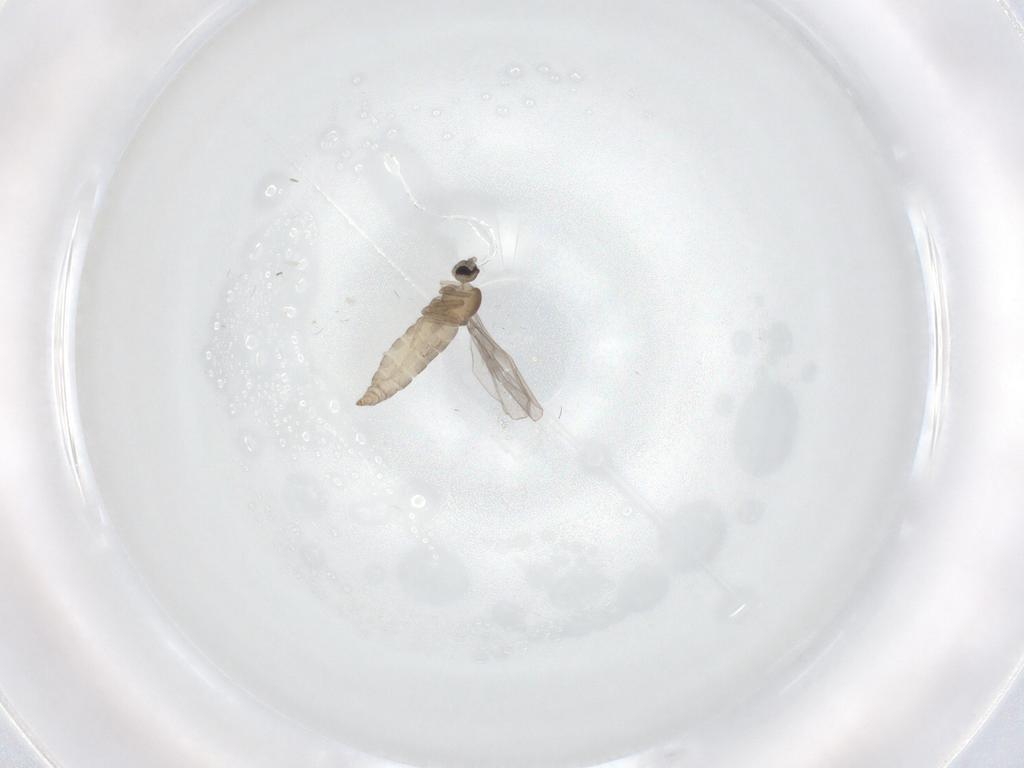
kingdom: Animalia
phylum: Arthropoda
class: Insecta
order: Diptera
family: Cecidomyiidae
